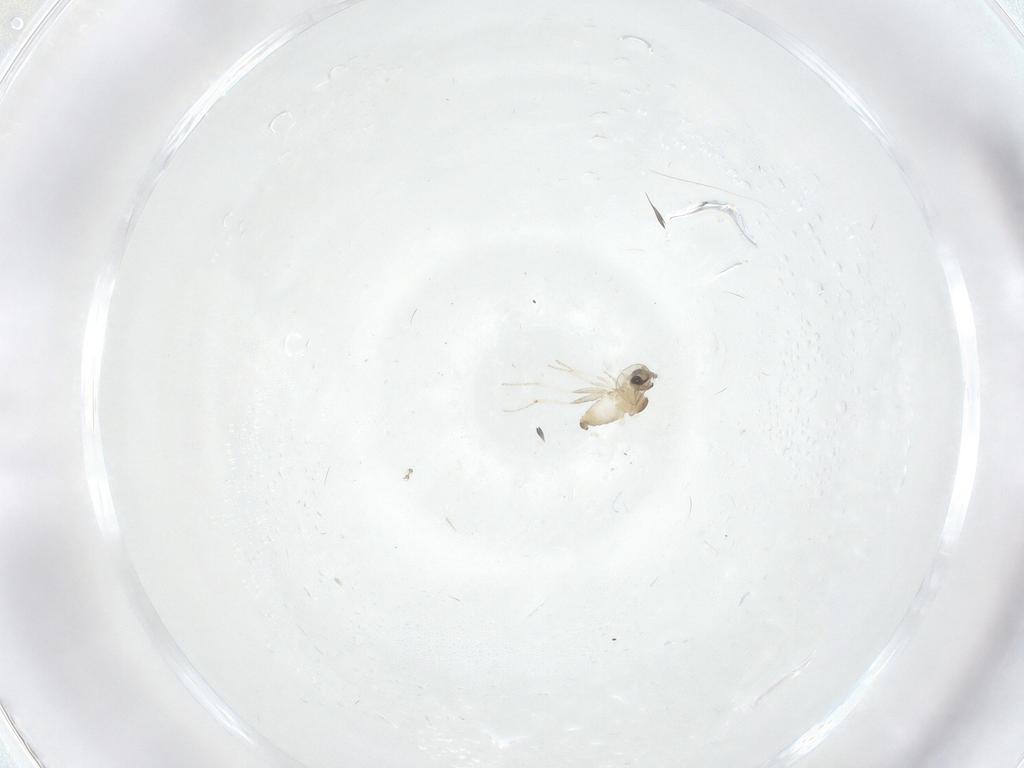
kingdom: Animalia
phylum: Arthropoda
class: Insecta
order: Diptera
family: Cecidomyiidae
